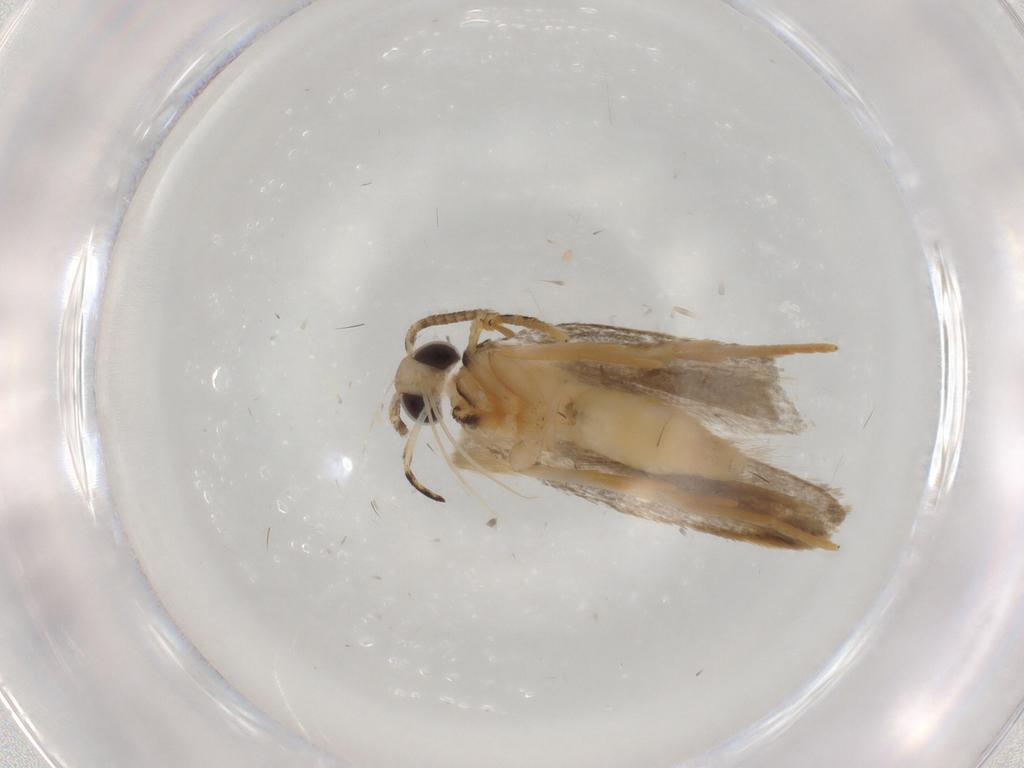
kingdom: Animalia
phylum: Arthropoda
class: Insecta
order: Lepidoptera
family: Autostichidae
